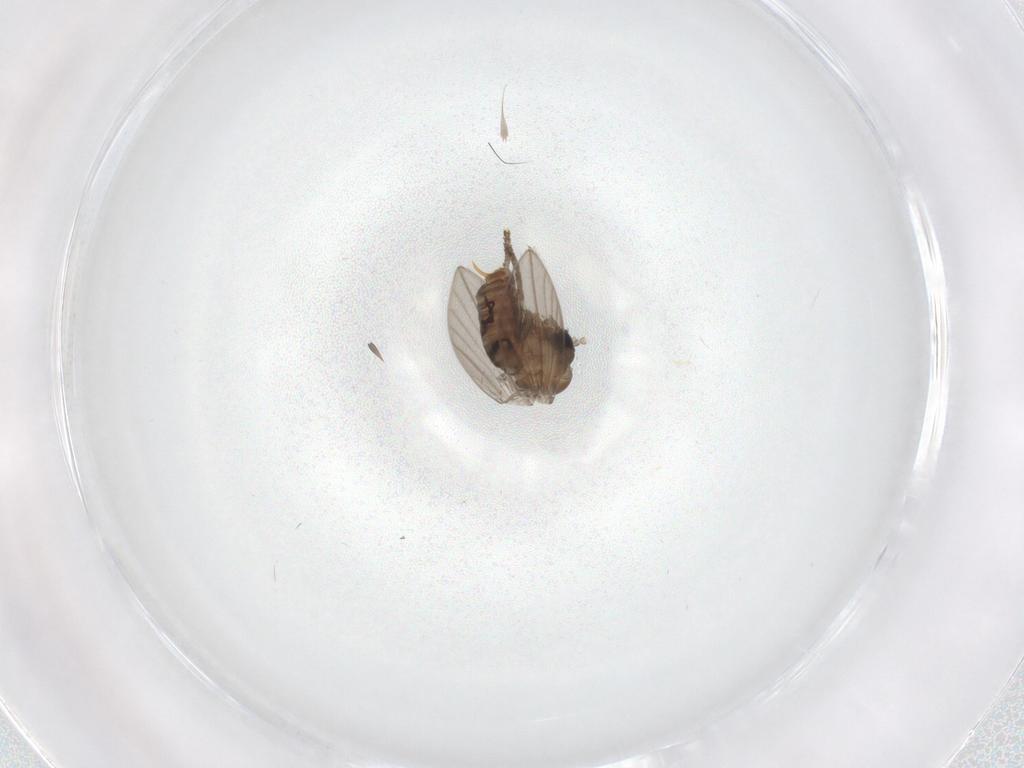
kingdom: Animalia
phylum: Arthropoda
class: Insecta
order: Diptera
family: Psychodidae
